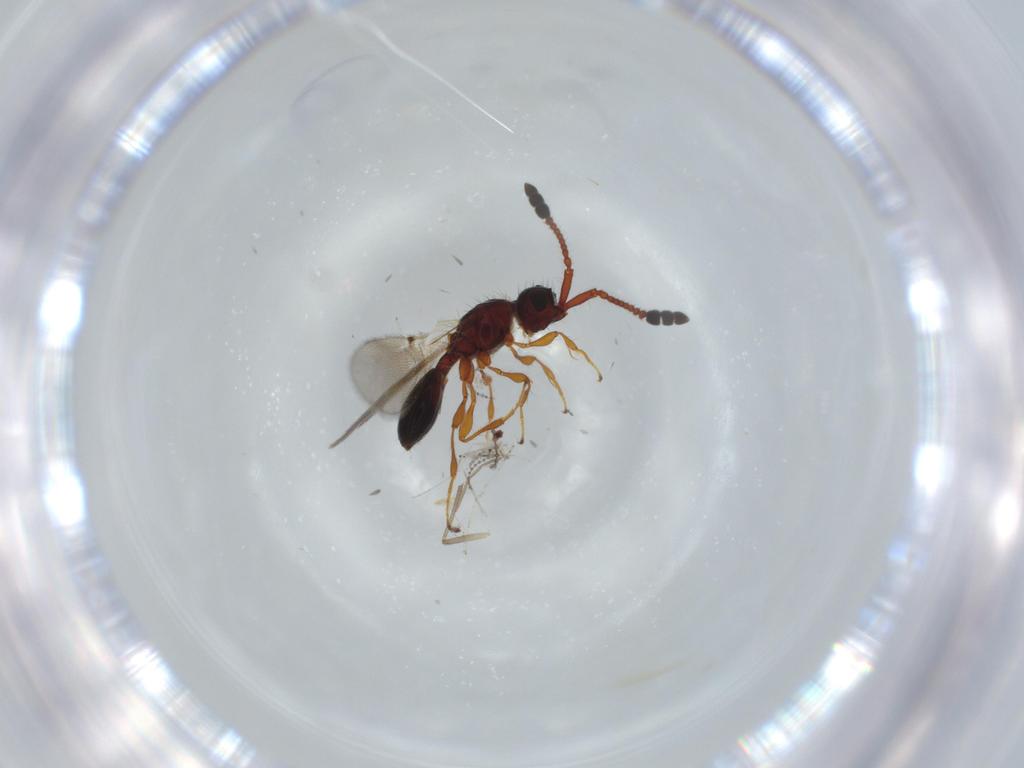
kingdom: Animalia
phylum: Arthropoda
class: Insecta
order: Hymenoptera
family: Diapriidae
